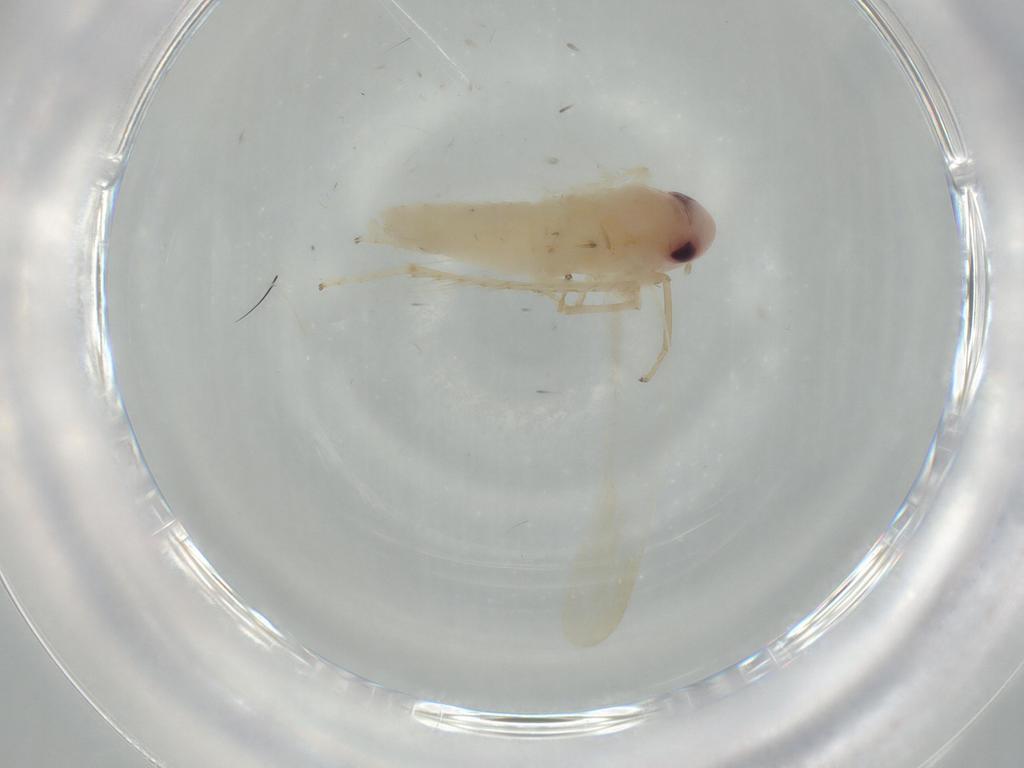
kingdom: Animalia
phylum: Arthropoda
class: Insecta
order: Hemiptera
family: Cicadellidae
